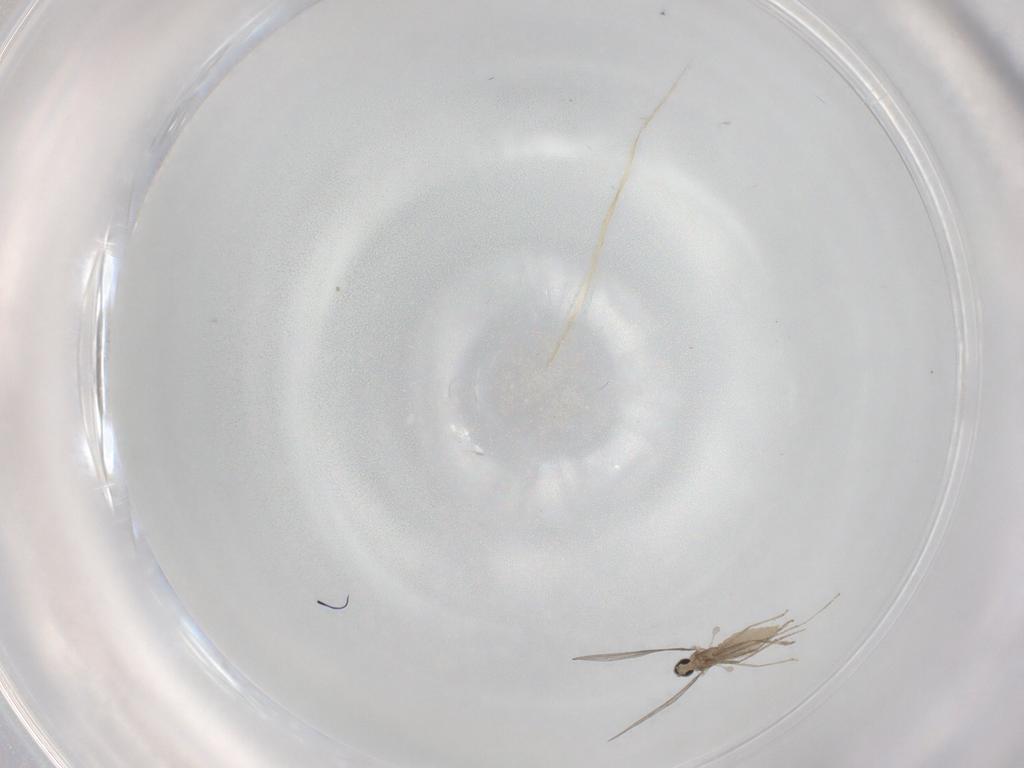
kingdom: Animalia
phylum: Arthropoda
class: Insecta
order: Diptera
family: Cecidomyiidae
